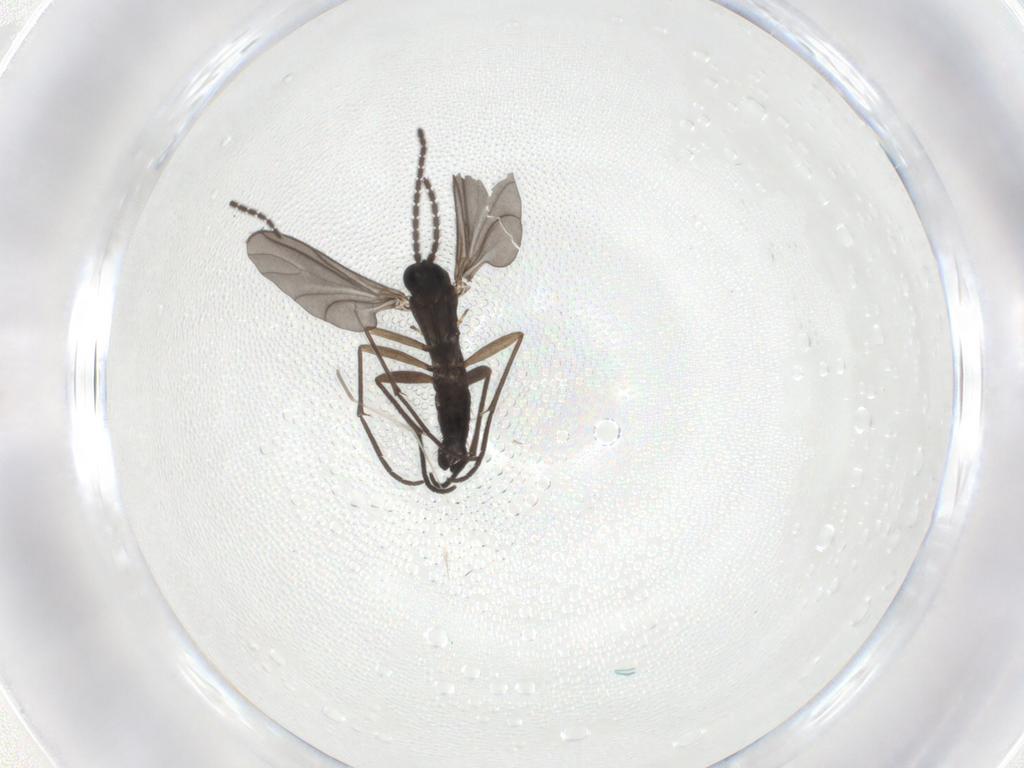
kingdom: Animalia
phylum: Arthropoda
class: Insecta
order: Diptera
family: Sciaridae
